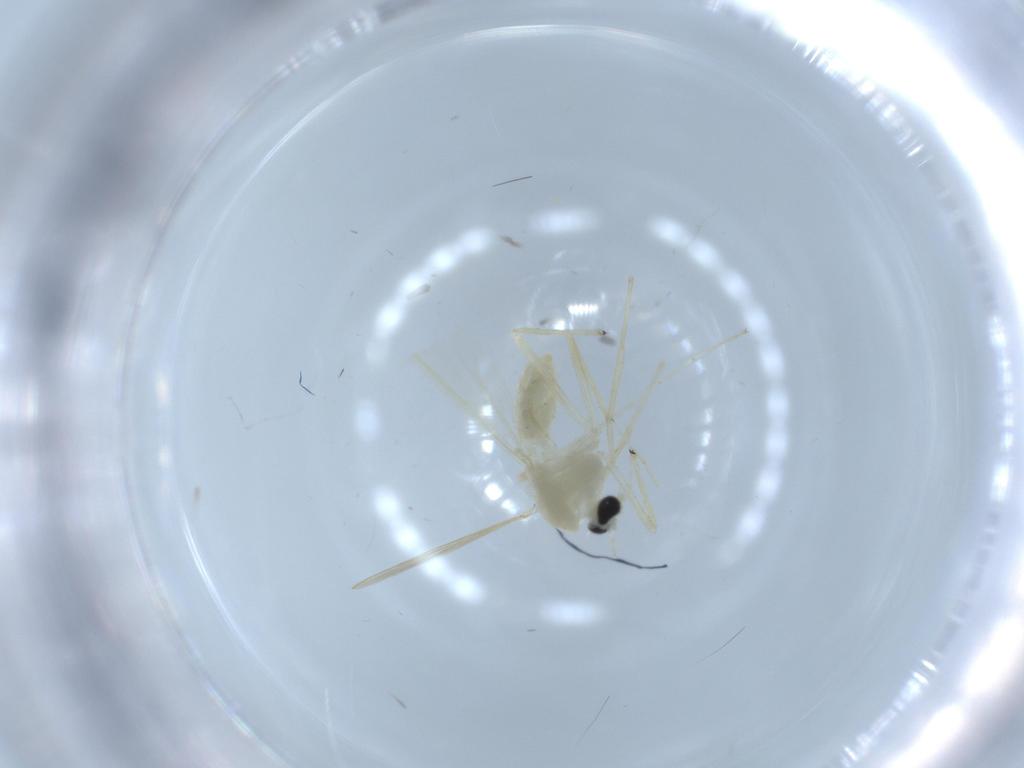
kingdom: Animalia
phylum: Arthropoda
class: Insecta
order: Diptera
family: Chironomidae
